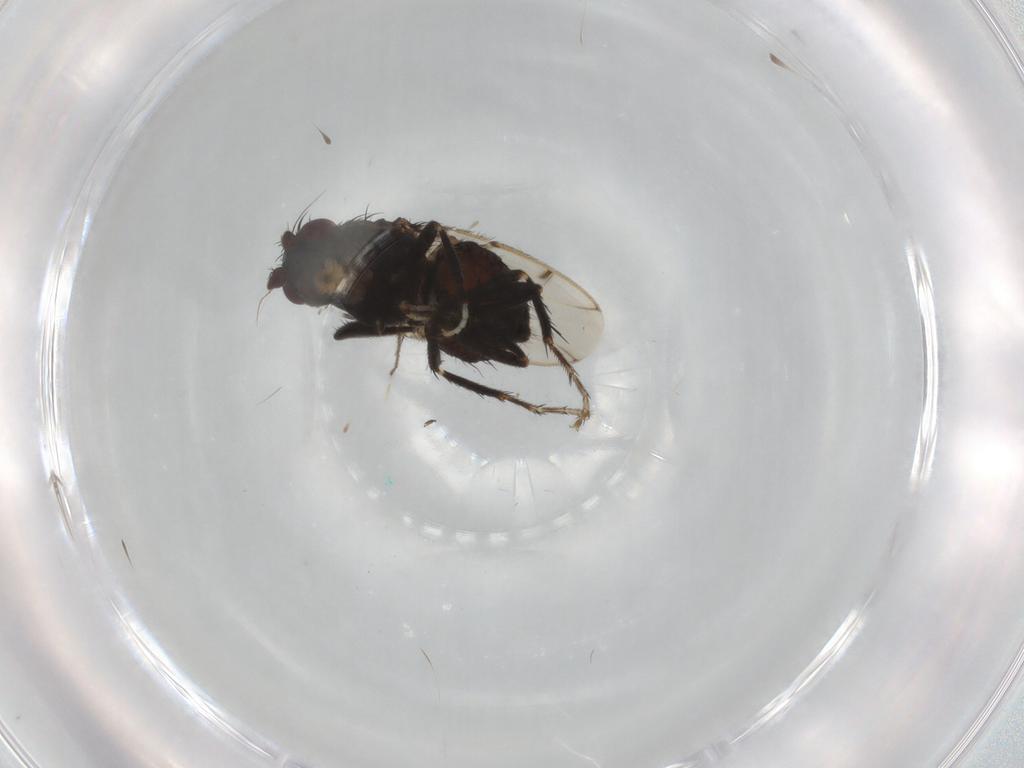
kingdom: Animalia
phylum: Arthropoda
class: Insecta
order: Diptera
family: Sphaeroceridae
